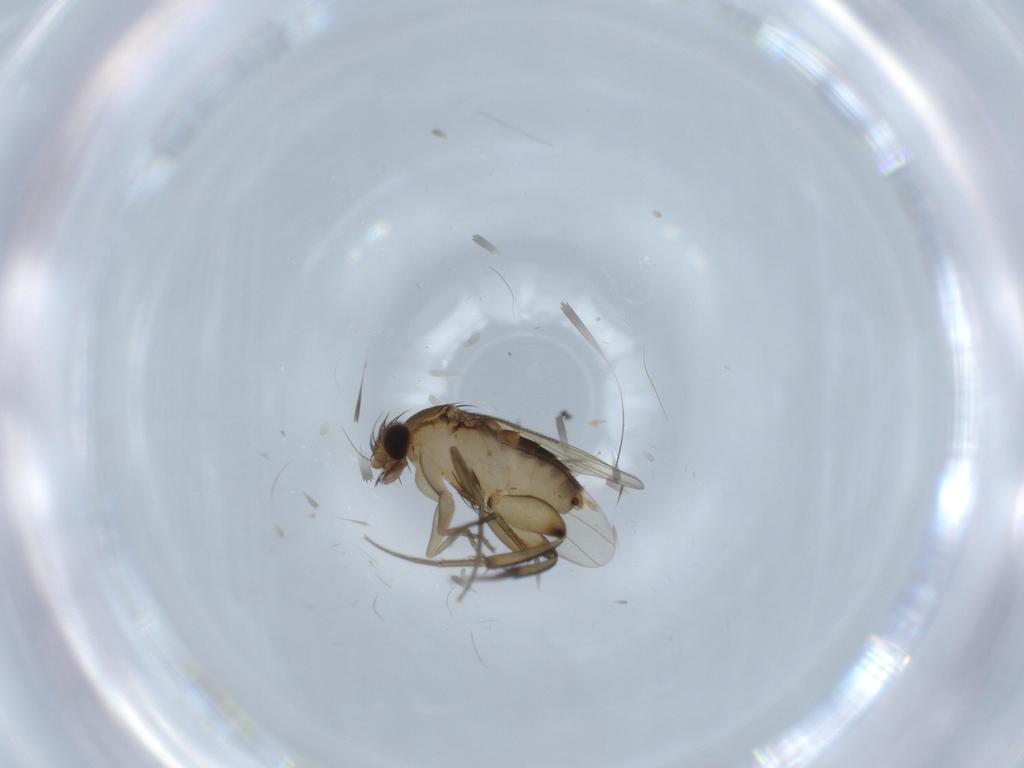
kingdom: Animalia
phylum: Arthropoda
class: Insecta
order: Diptera
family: Phoridae
